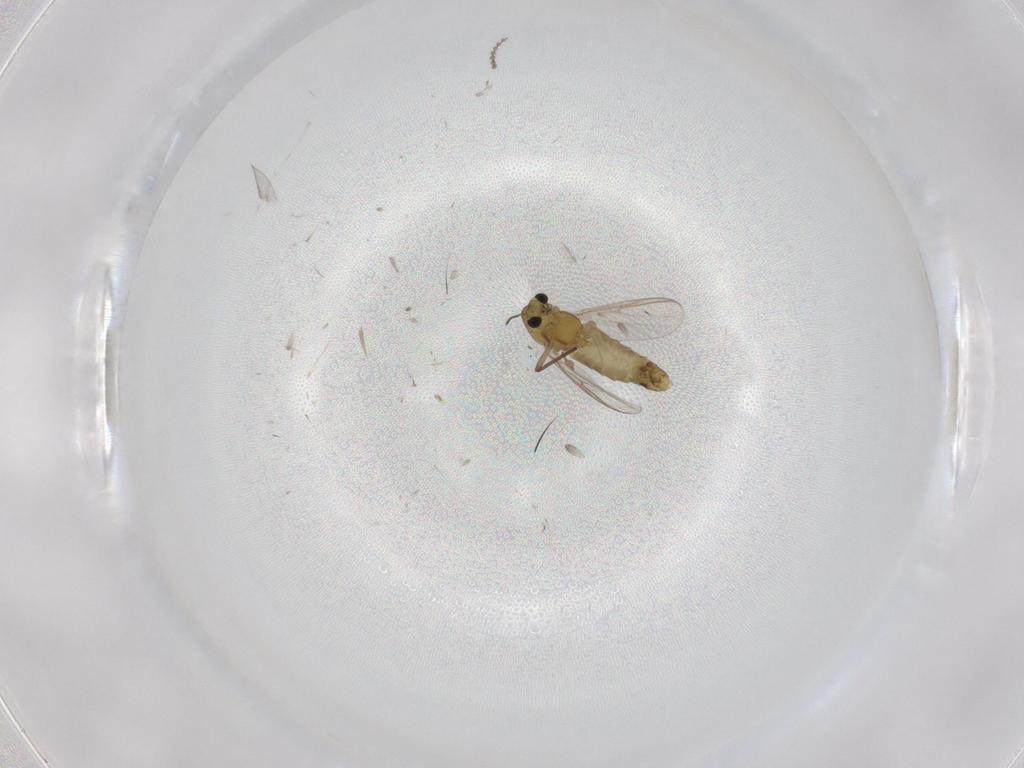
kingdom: Animalia
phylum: Arthropoda
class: Insecta
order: Diptera
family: Chironomidae
